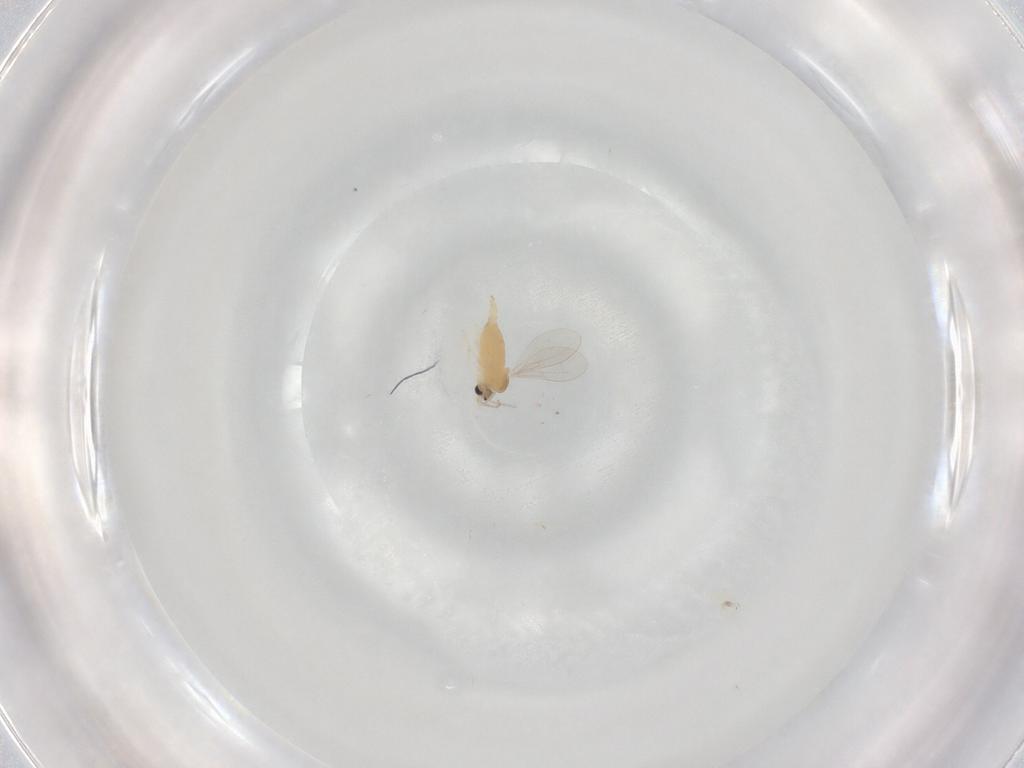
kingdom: Animalia
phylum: Arthropoda
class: Insecta
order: Diptera
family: Cecidomyiidae
